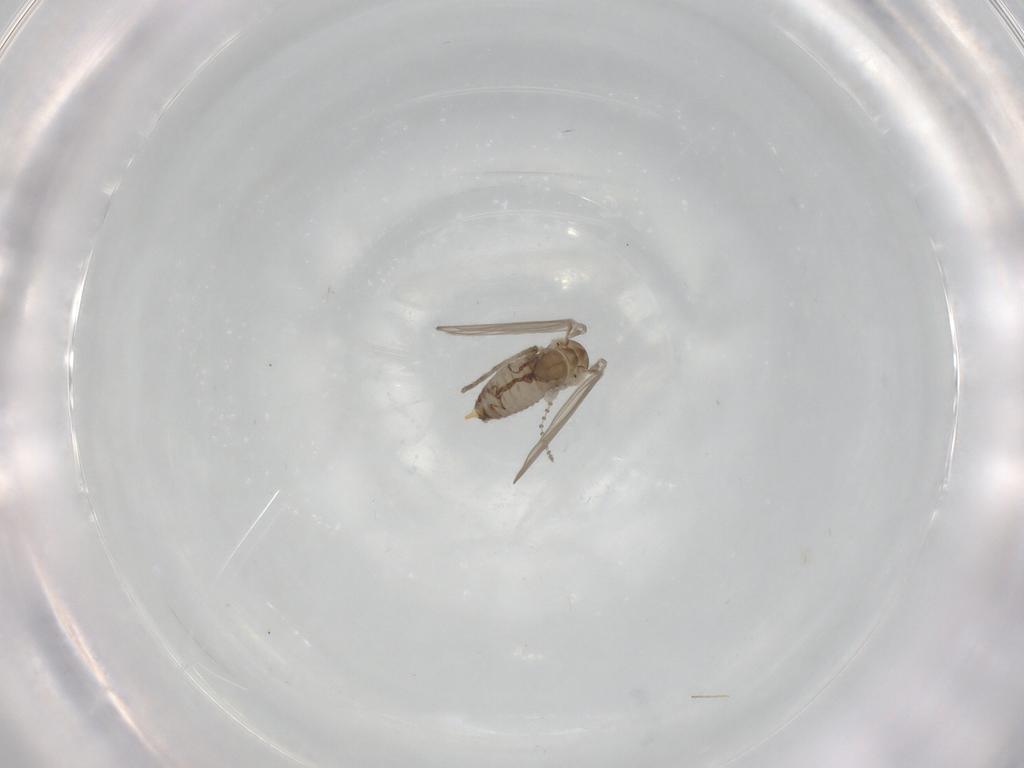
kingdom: Animalia
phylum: Arthropoda
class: Insecta
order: Diptera
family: Psychodidae
